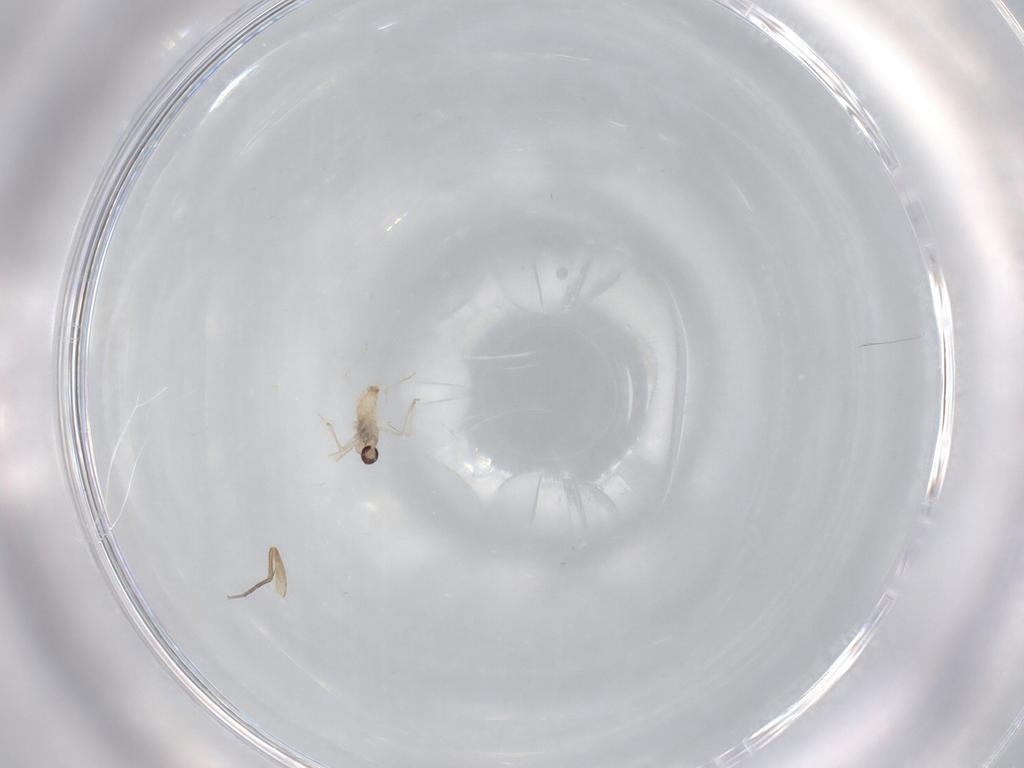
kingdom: Animalia
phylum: Arthropoda
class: Insecta
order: Diptera
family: Cecidomyiidae
